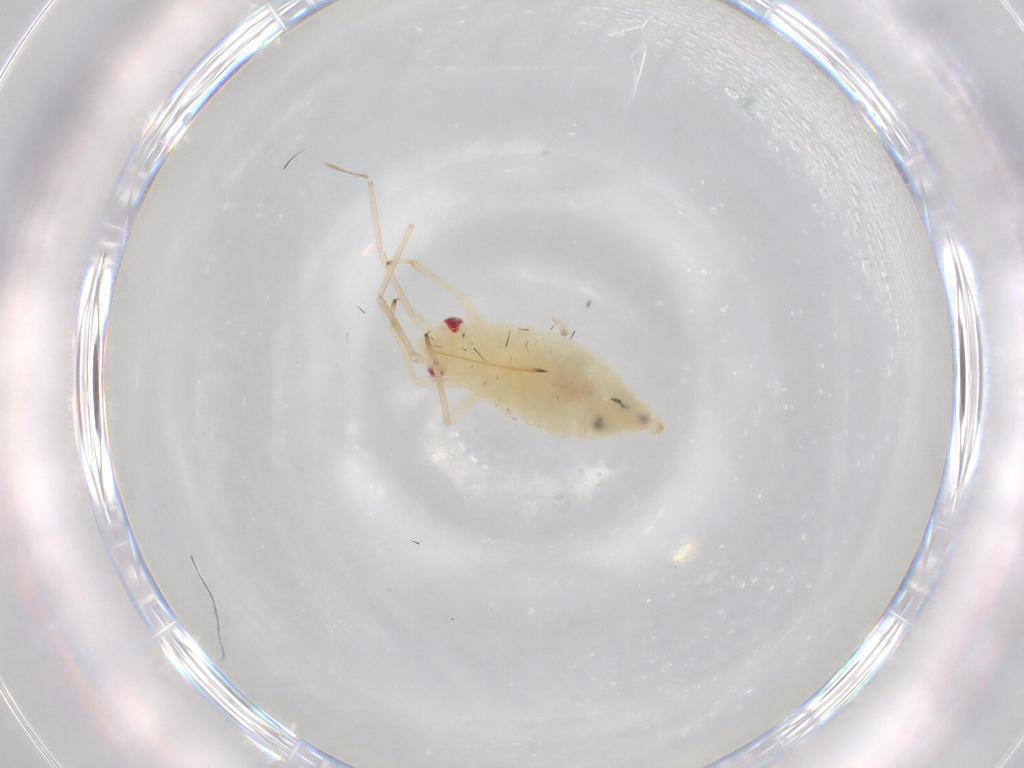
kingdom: Animalia
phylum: Arthropoda
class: Insecta
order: Hemiptera
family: Miridae
